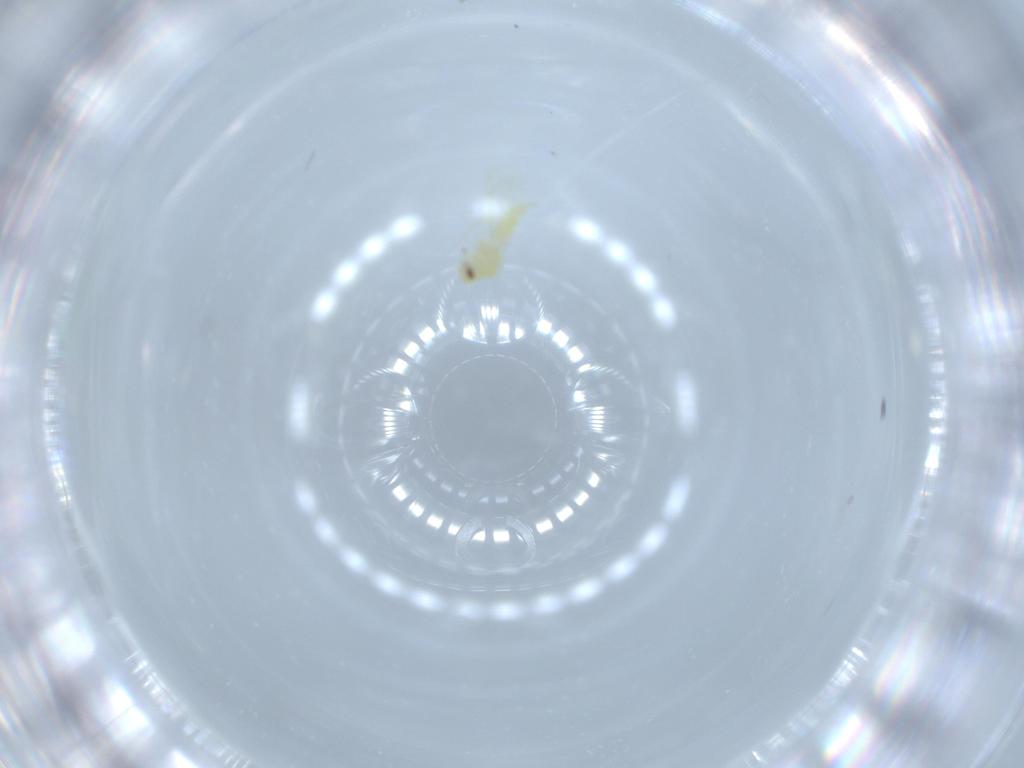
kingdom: Animalia
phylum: Arthropoda
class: Insecta
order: Hemiptera
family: Aleyrodidae
